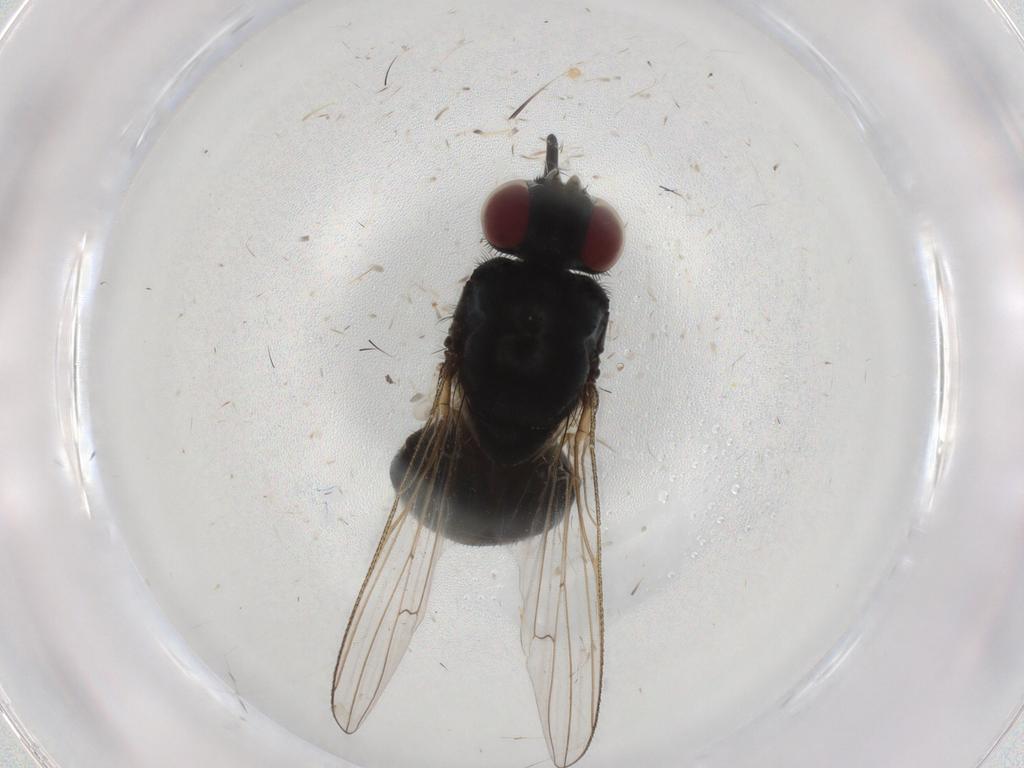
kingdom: Animalia
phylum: Arthropoda
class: Insecta
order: Diptera
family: Muscidae
